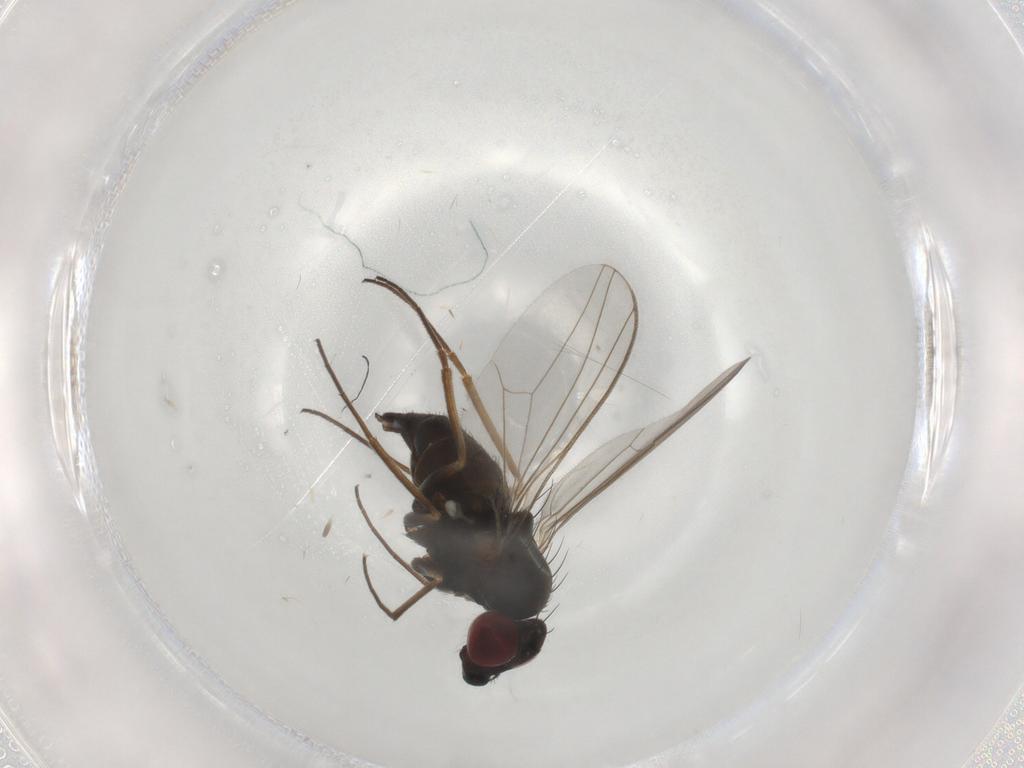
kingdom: Animalia
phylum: Arthropoda
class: Insecta
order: Diptera
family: Dolichopodidae
